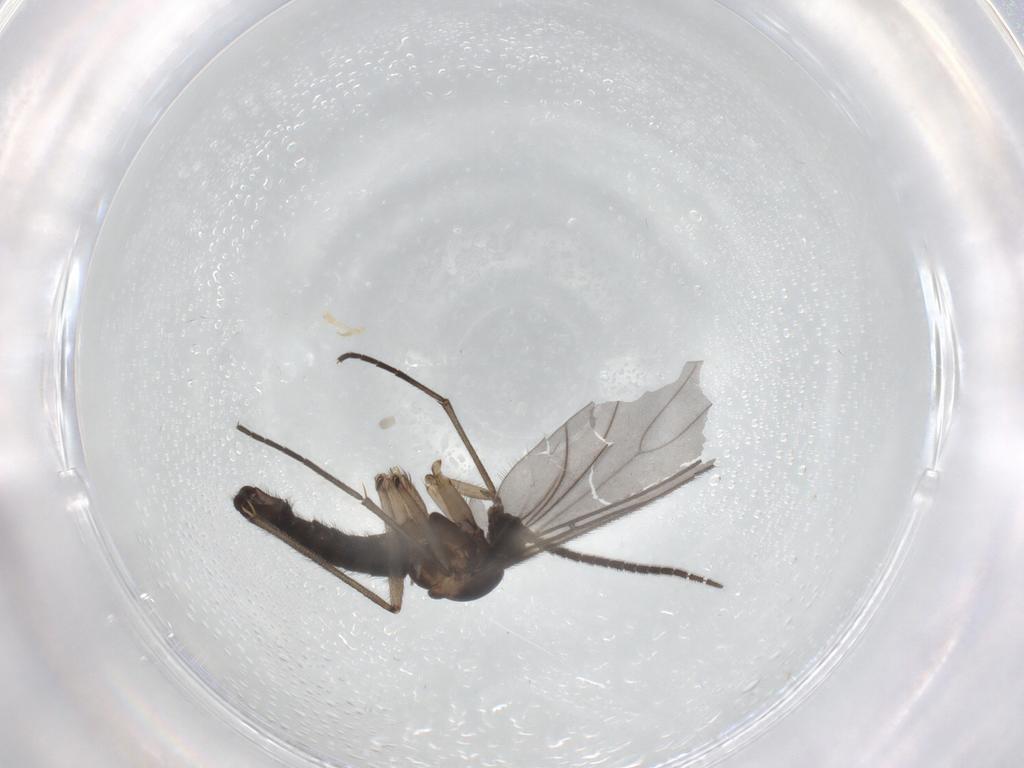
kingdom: Animalia
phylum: Arthropoda
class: Insecta
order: Diptera
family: Sciaridae
